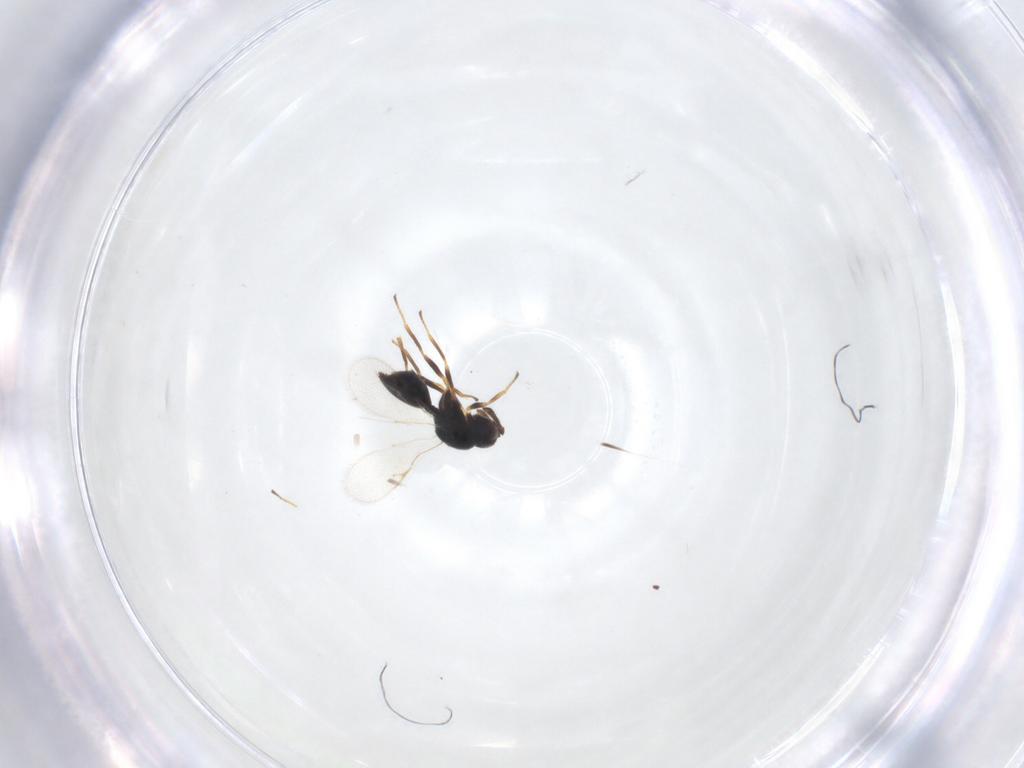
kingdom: Animalia
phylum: Arthropoda
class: Insecta
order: Hymenoptera
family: Chalcidoidea_incertae_sedis
